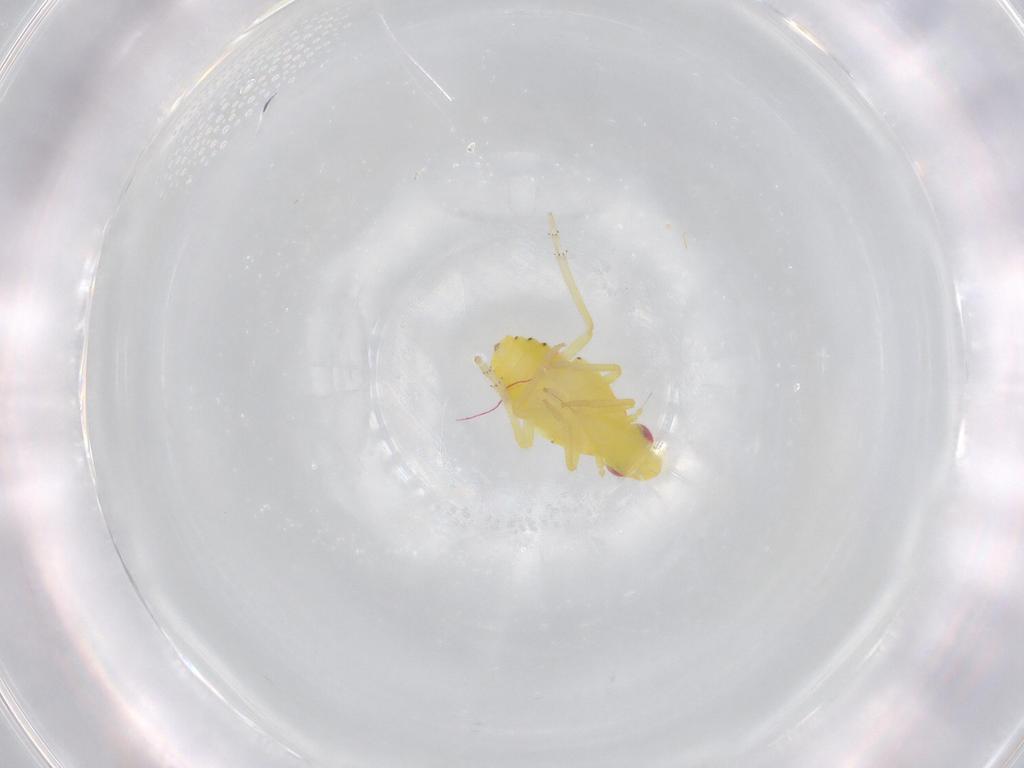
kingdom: Animalia
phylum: Arthropoda
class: Insecta
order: Hemiptera
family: Tropiduchidae
